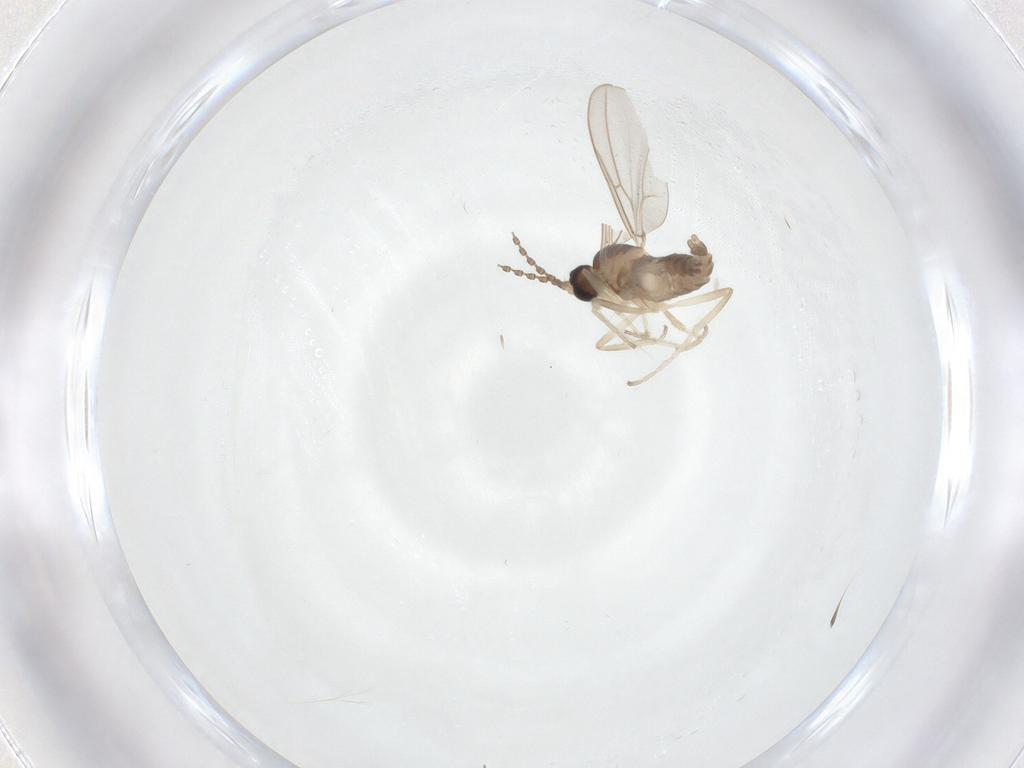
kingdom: Animalia
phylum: Arthropoda
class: Insecta
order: Diptera
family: Cecidomyiidae
